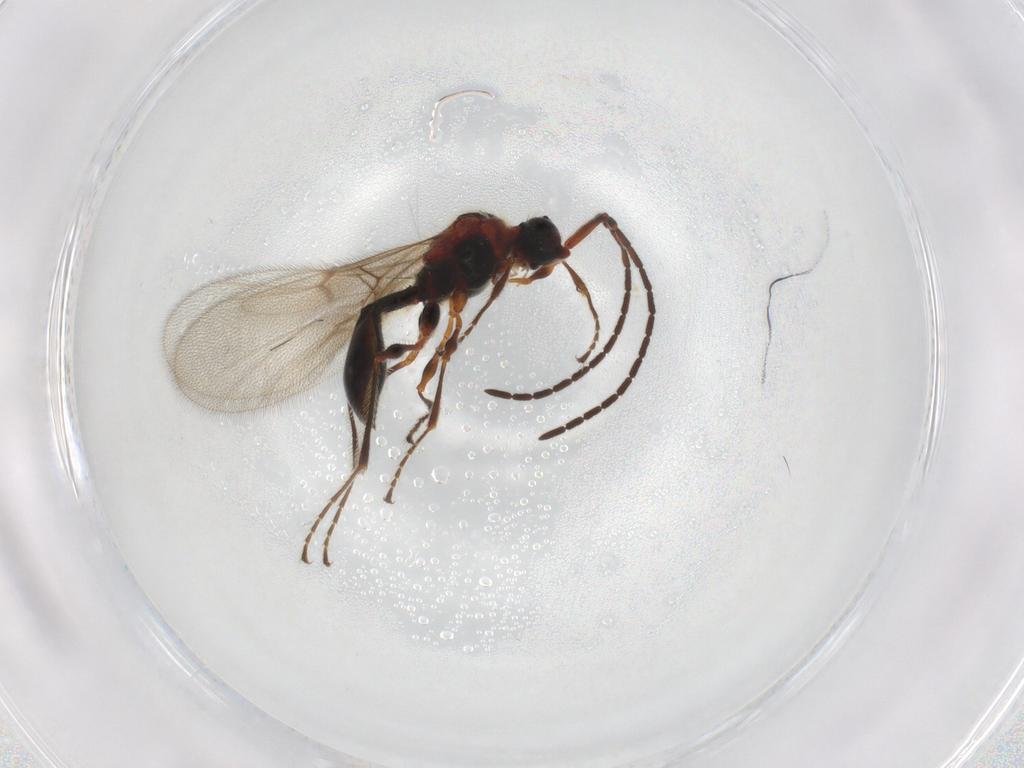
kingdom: Animalia
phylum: Arthropoda
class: Insecta
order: Hymenoptera
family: Diapriidae
